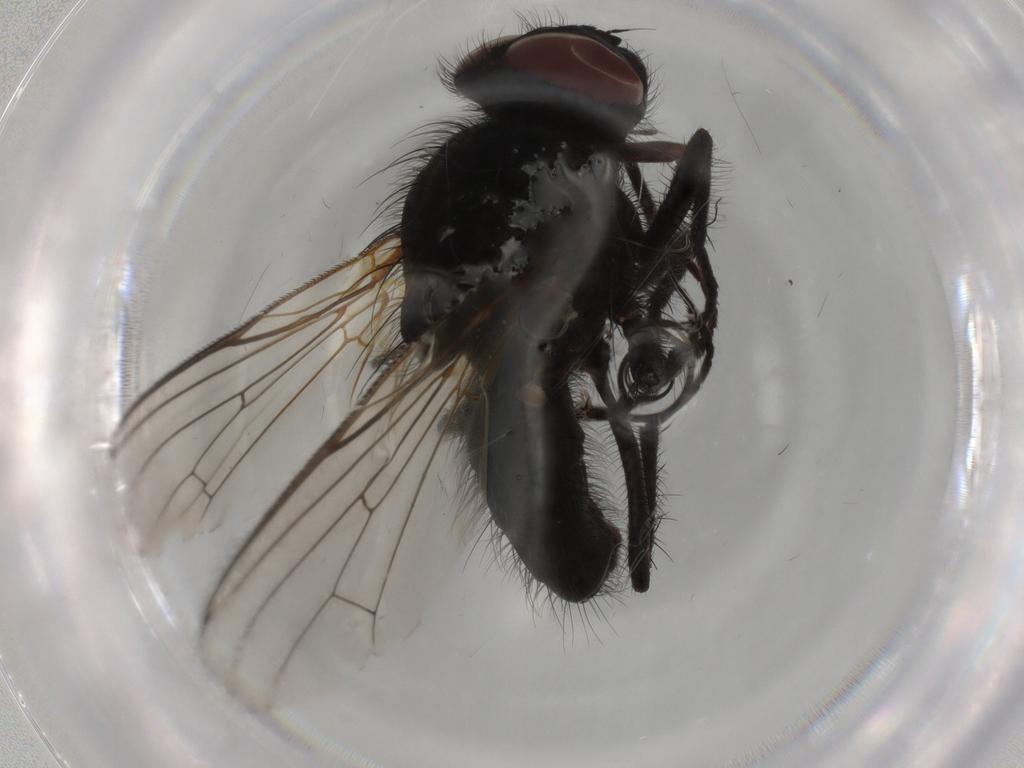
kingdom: Animalia
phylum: Arthropoda
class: Insecta
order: Diptera
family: Anthomyiidae
